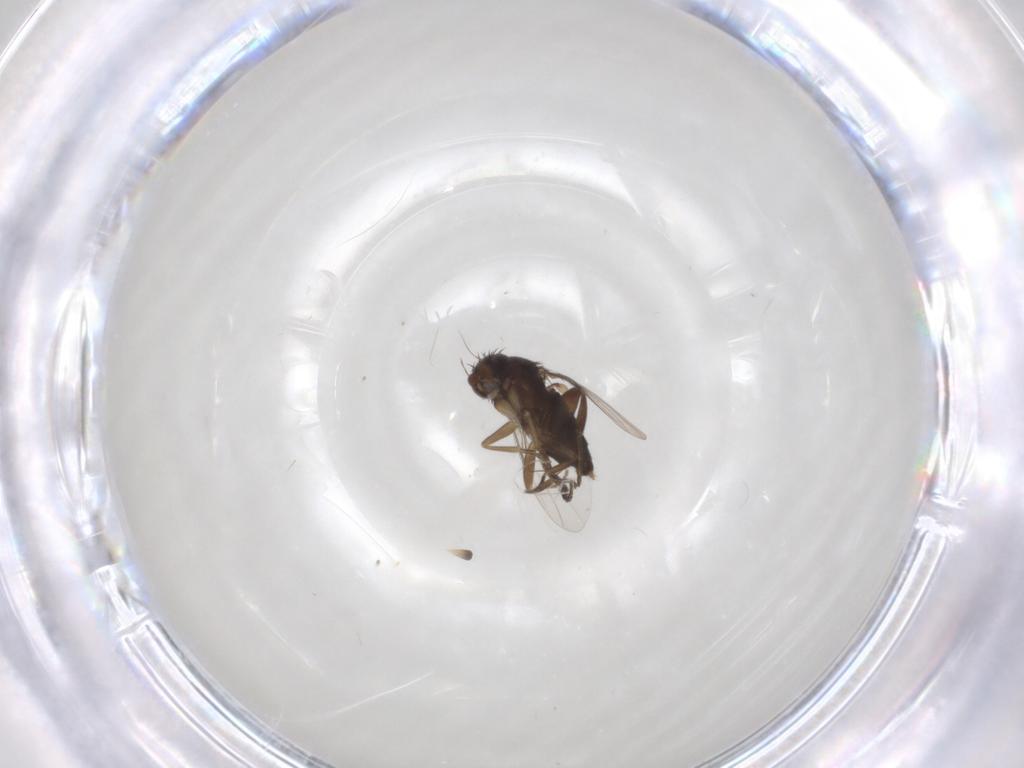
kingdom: Animalia
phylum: Arthropoda
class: Insecta
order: Diptera
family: Phoridae
